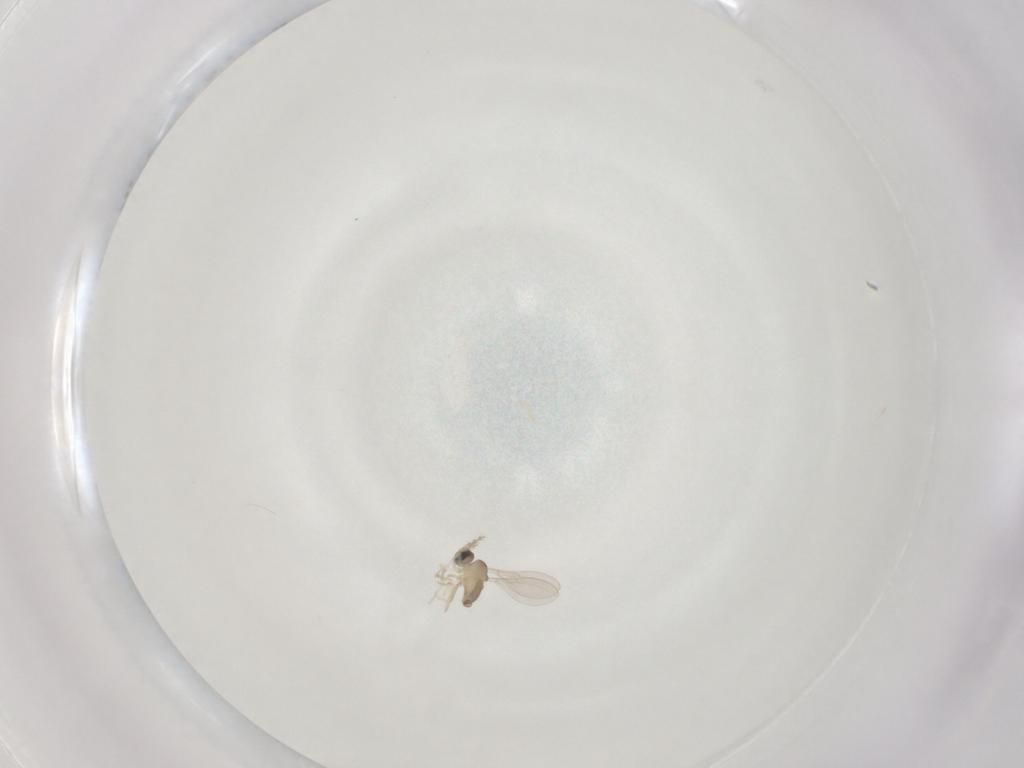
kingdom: Animalia
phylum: Arthropoda
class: Insecta
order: Diptera
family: Cecidomyiidae
